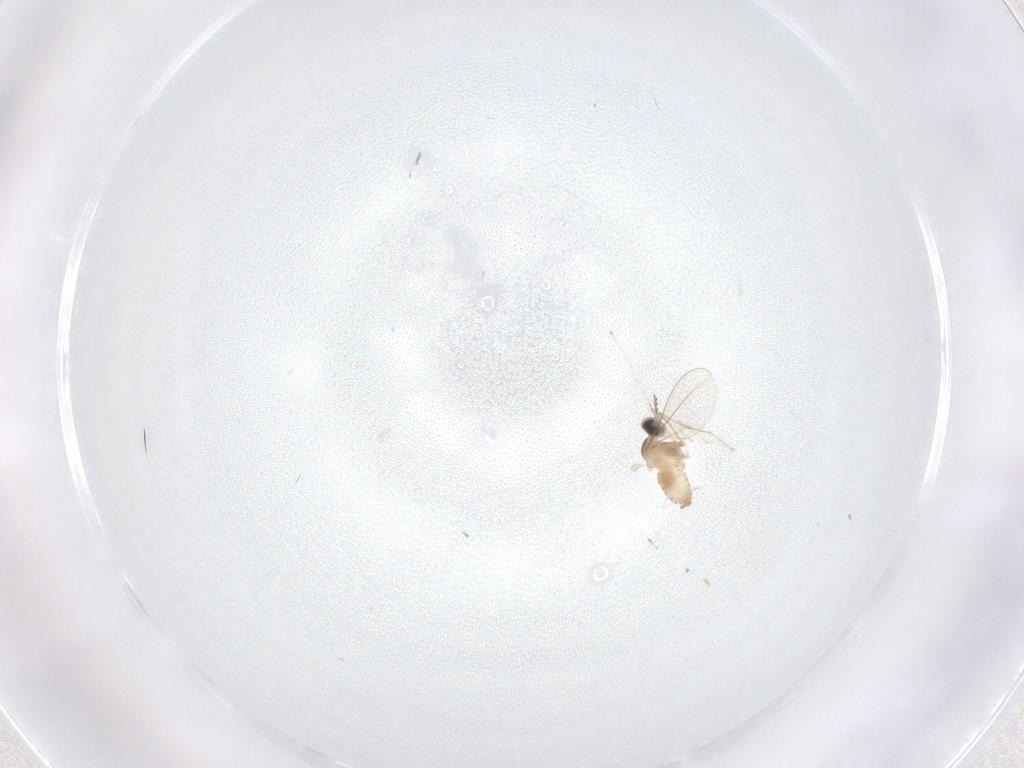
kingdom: Animalia
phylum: Arthropoda
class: Insecta
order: Diptera
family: Cecidomyiidae
